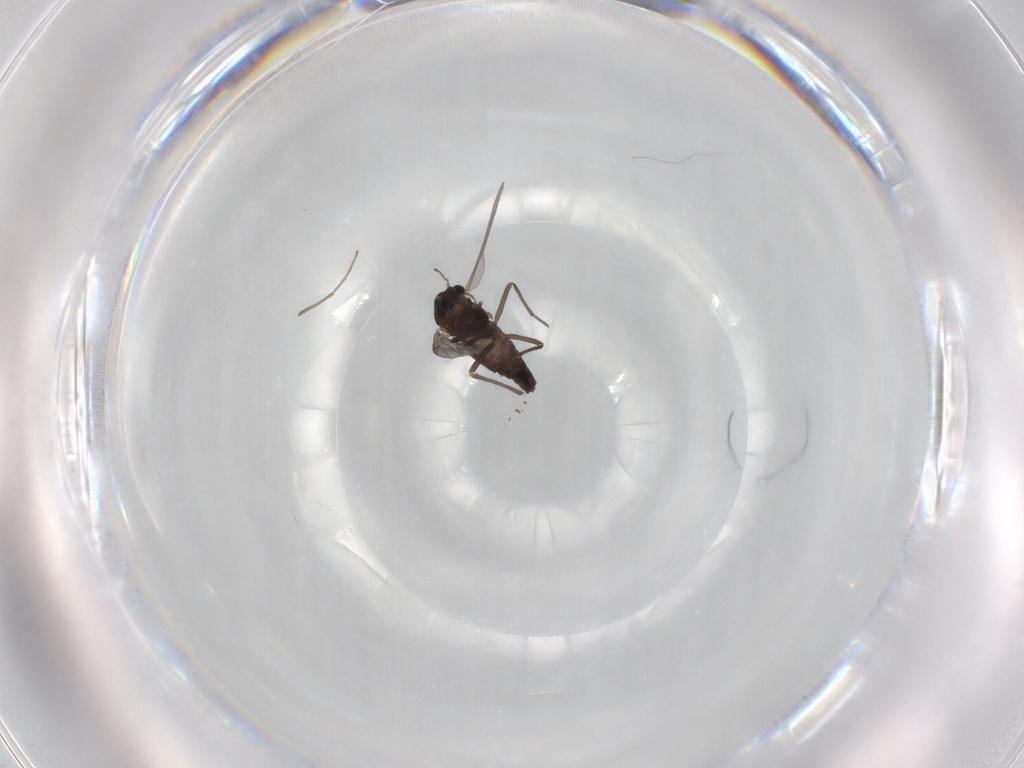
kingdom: Animalia
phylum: Arthropoda
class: Insecta
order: Diptera
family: Chironomidae
